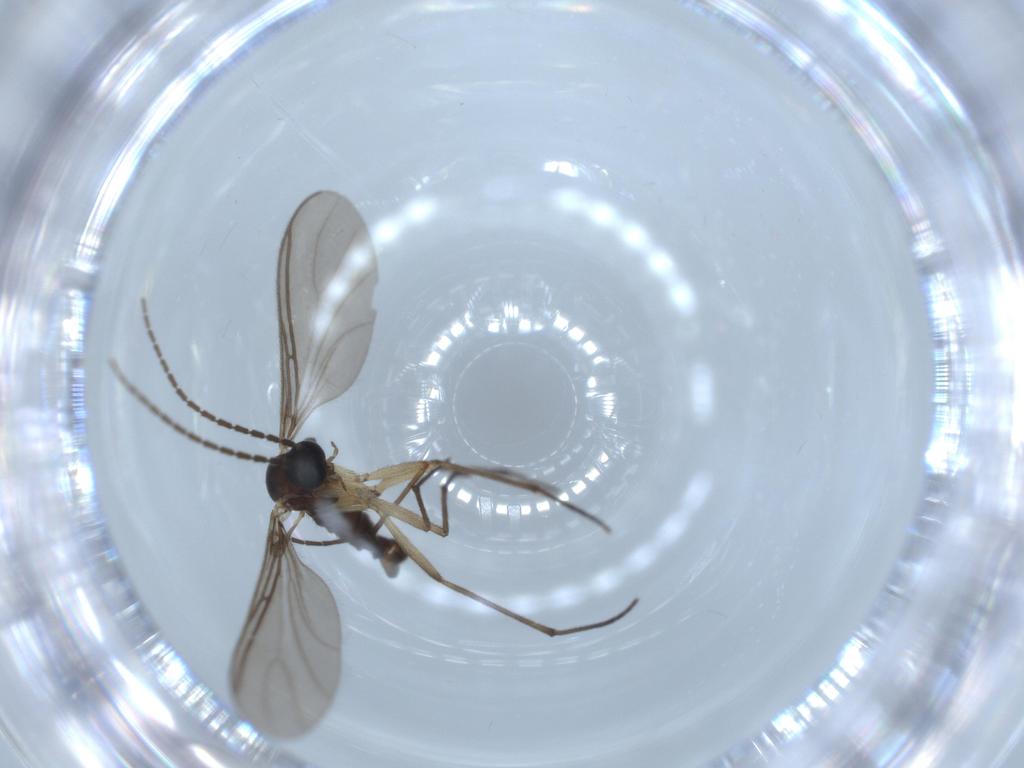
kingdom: Animalia
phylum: Arthropoda
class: Insecta
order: Diptera
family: Sciaridae
